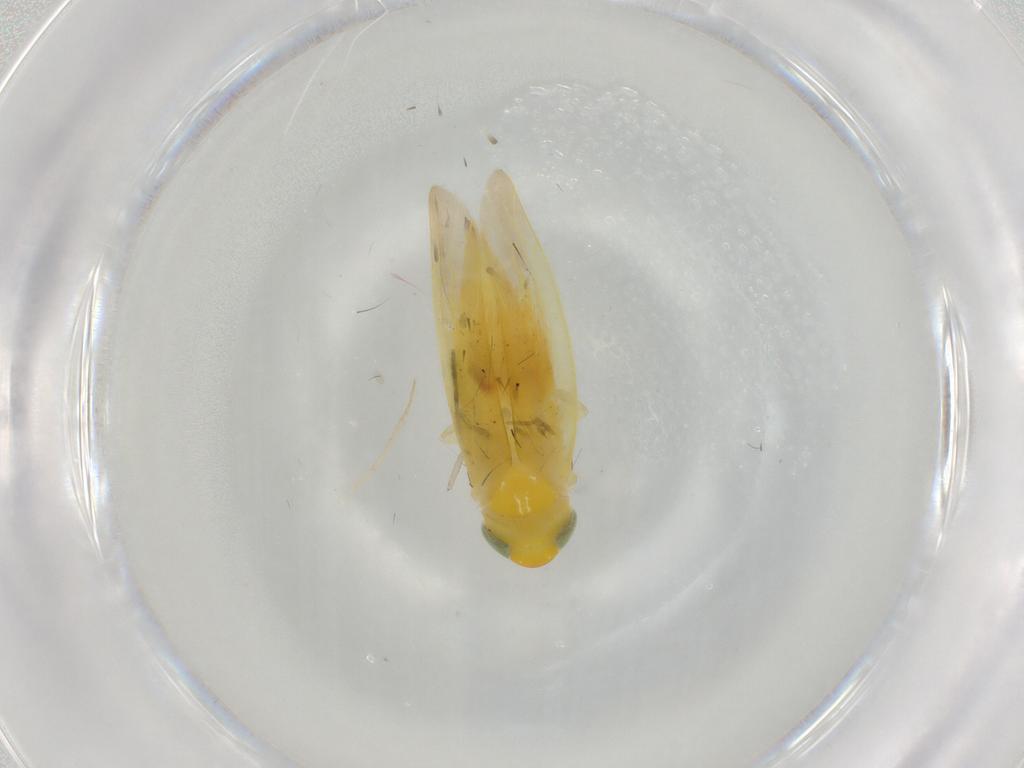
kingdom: Animalia
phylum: Arthropoda
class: Insecta
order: Hemiptera
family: Cicadellidae
